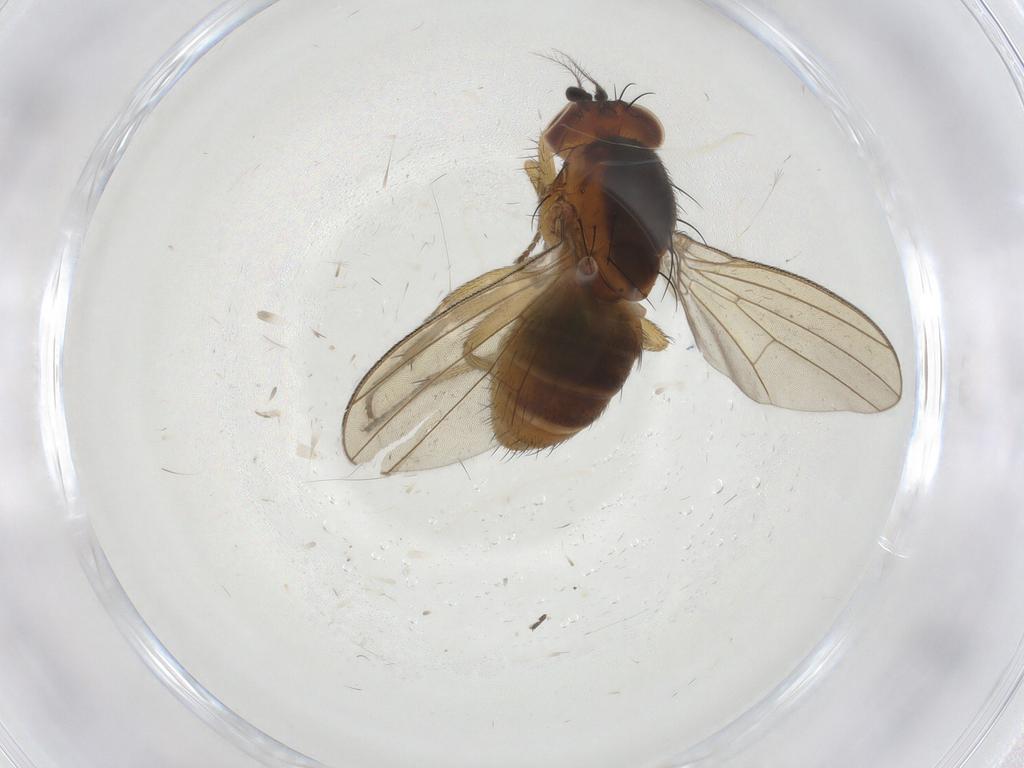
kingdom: Animalia
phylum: Arthropoda
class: Insecta
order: Diptera
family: Drosophilidae
